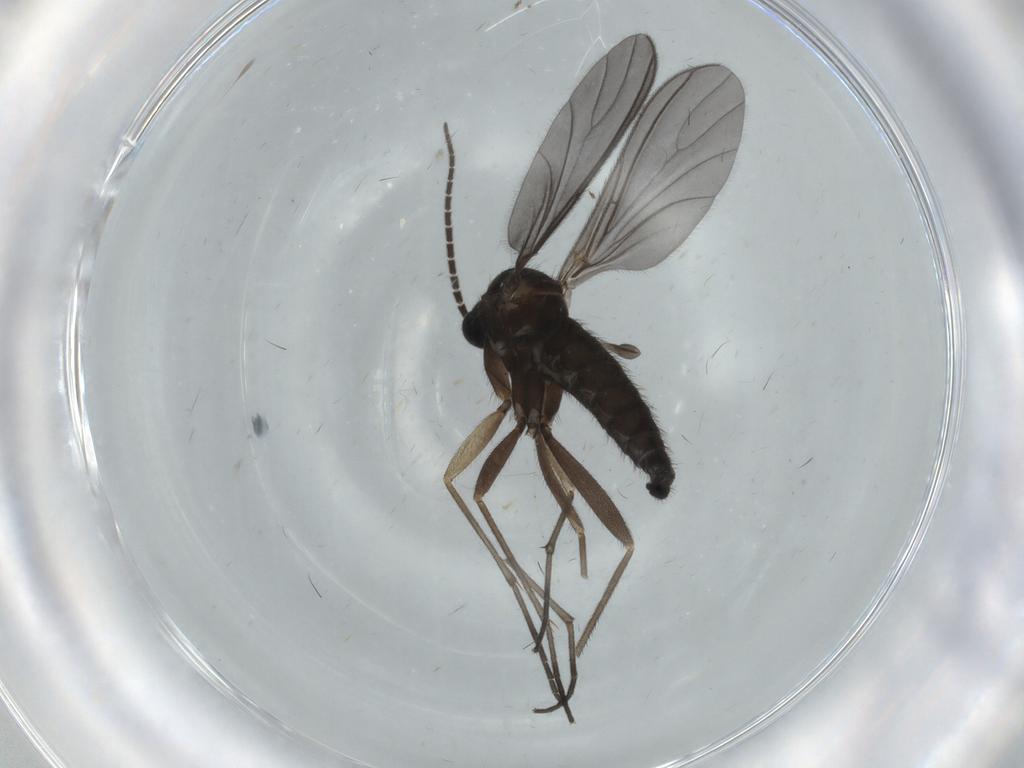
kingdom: Animalia
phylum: Arthropoda
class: Insecta
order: Diptera
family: Sciaridae
